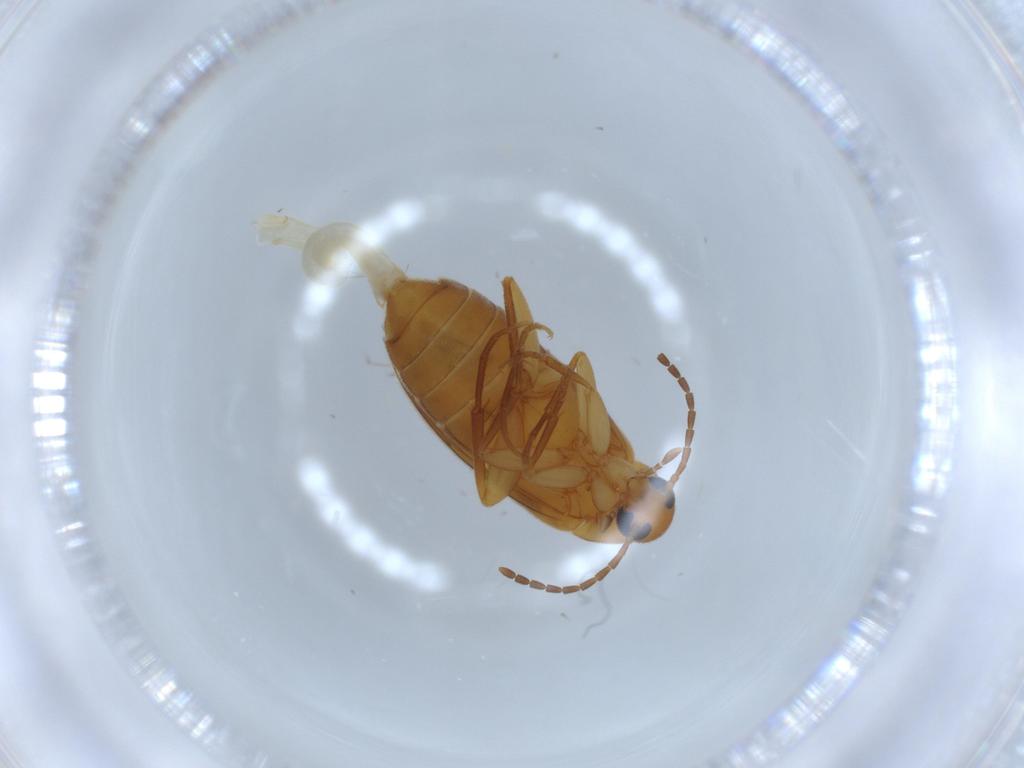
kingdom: Animalia
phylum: Arthropoda
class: Insecta
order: Coleoptera
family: Scraptiidae
